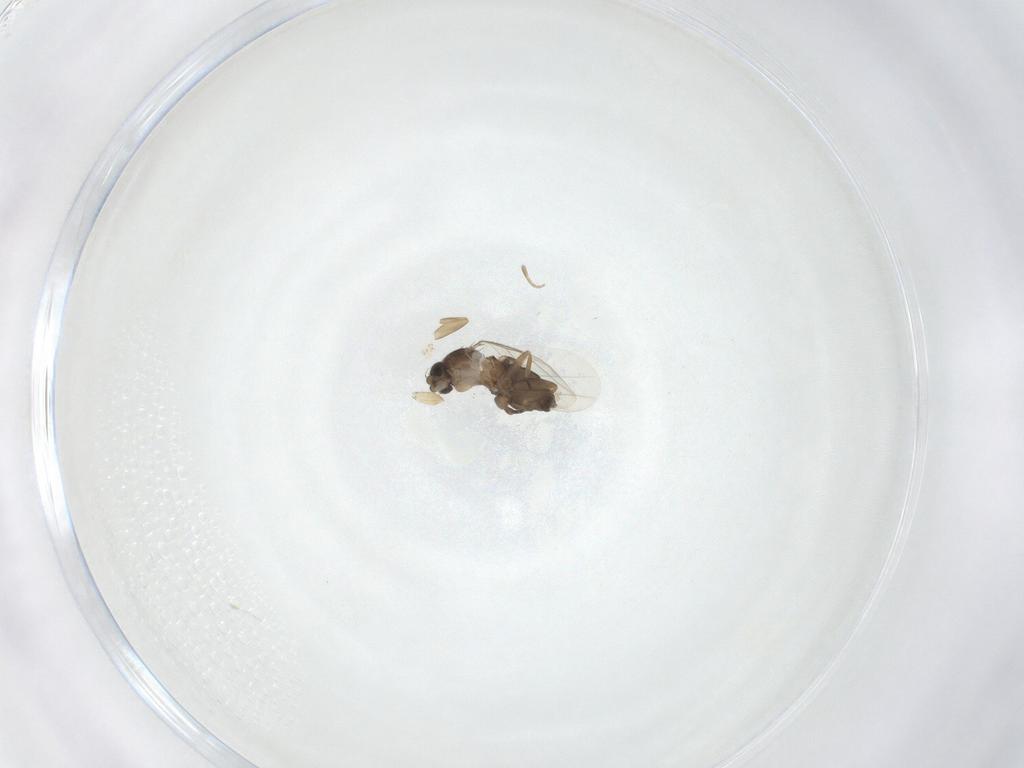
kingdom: Animalia
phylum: Arthropoda
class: Insecta
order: Diptera
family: Phoridae
